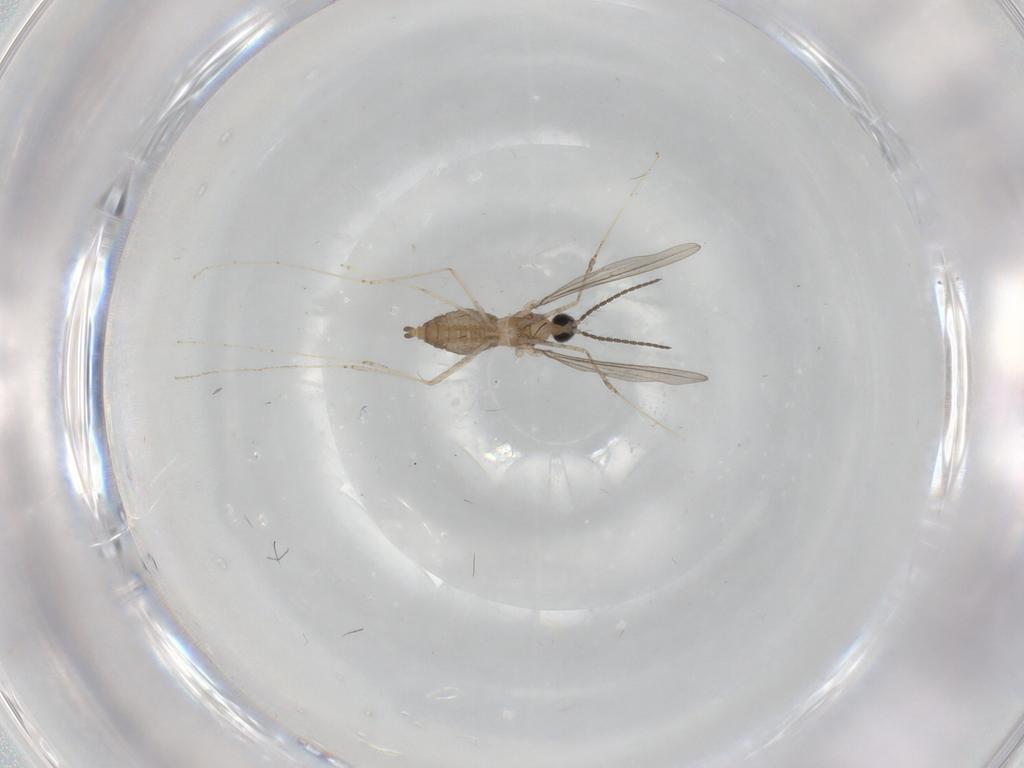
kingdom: Animalia
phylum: Arthropoda
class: Insecta
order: Diptera
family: Cecidomyiidae
